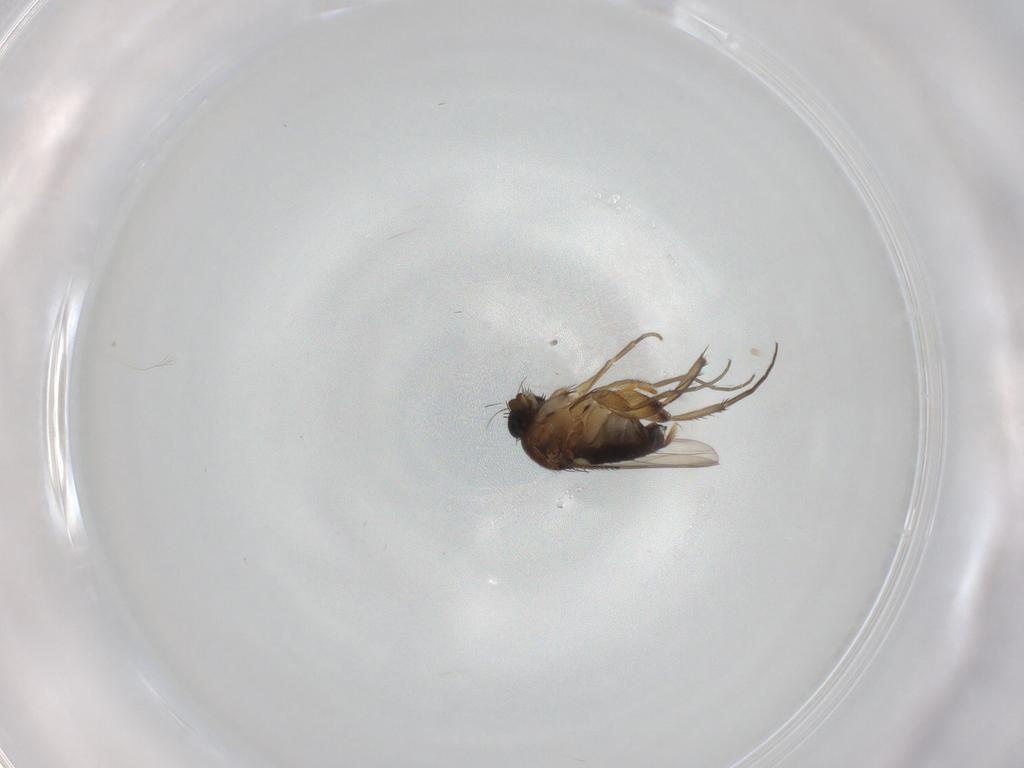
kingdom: Animalia
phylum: Arthropoda
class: Insecta
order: Diptera
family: Phoridae
